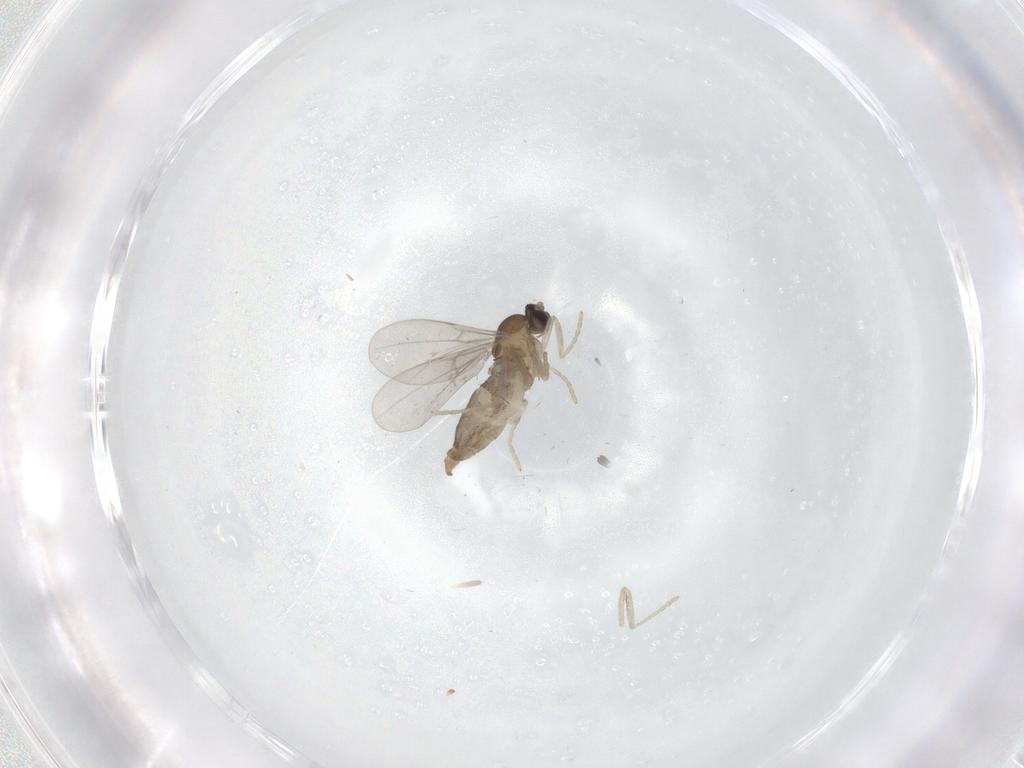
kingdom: Animalia
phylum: Arthropoda
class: Insecta
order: Diptera
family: Cecidomyiidae
